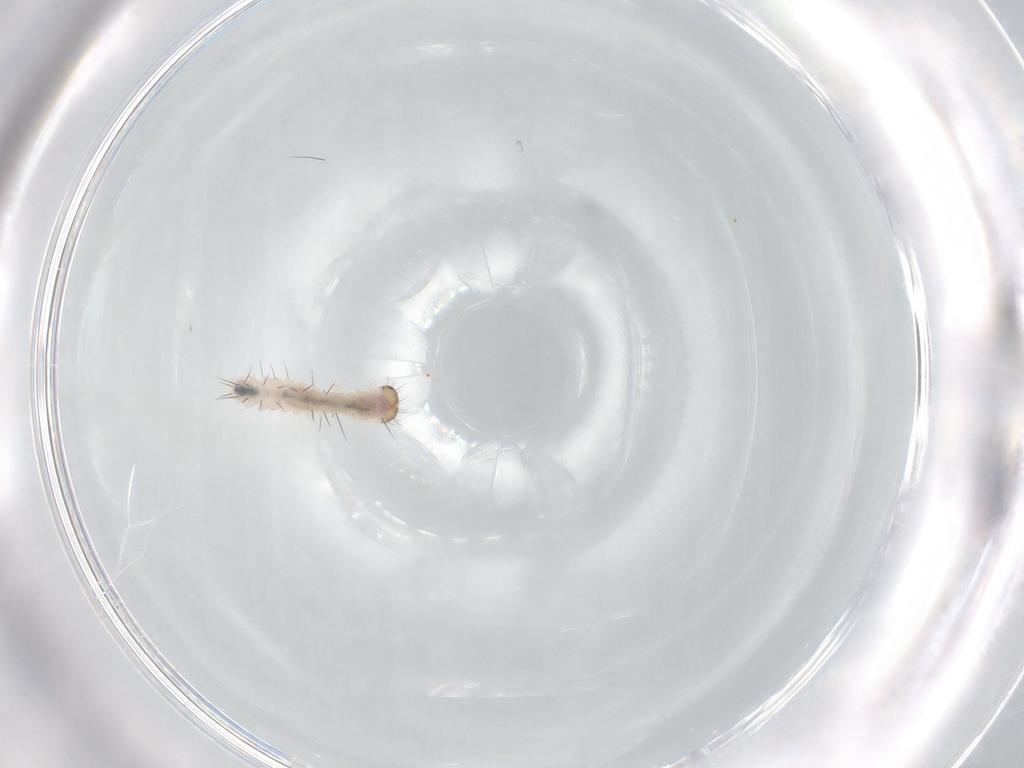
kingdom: Animalia
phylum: Arthropoda
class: Insecta
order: Lepidoptera
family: Erebidae
